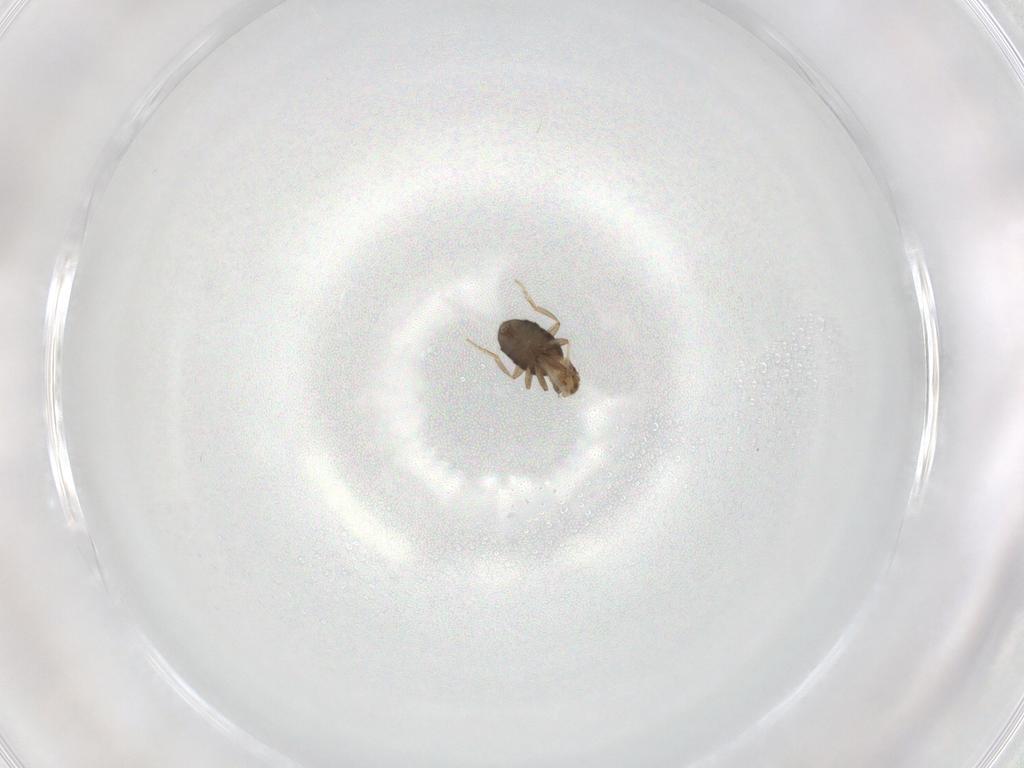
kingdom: Animalia
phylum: Arthropoda
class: Insecta
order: Diptera
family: Phoridae
